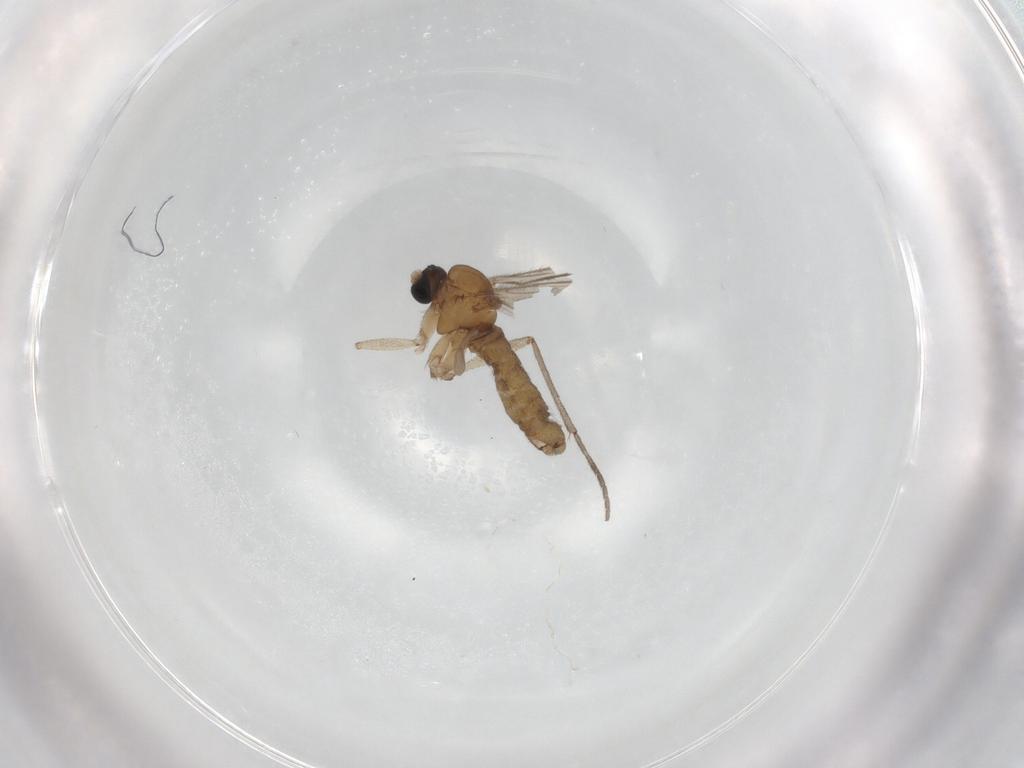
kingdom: Animalia
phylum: Arthropoda
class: Insecta
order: Diptera
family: Sciaridae
